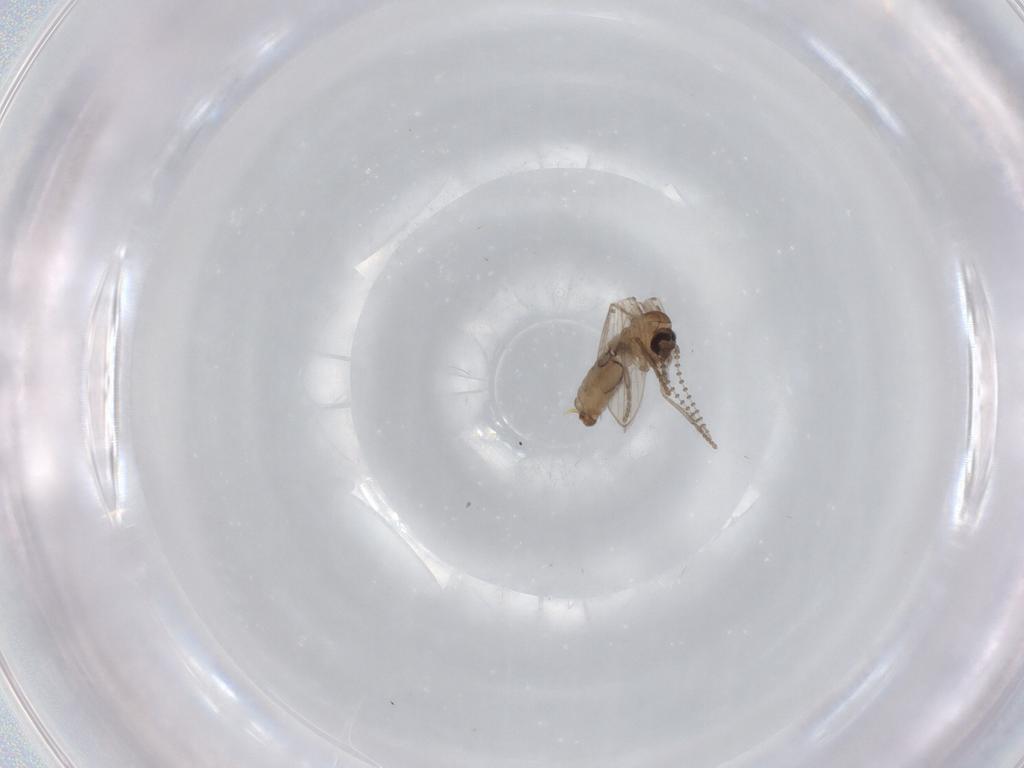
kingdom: Animalia
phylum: Arthropoda
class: Insecta
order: Diptera
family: Psychodidae
